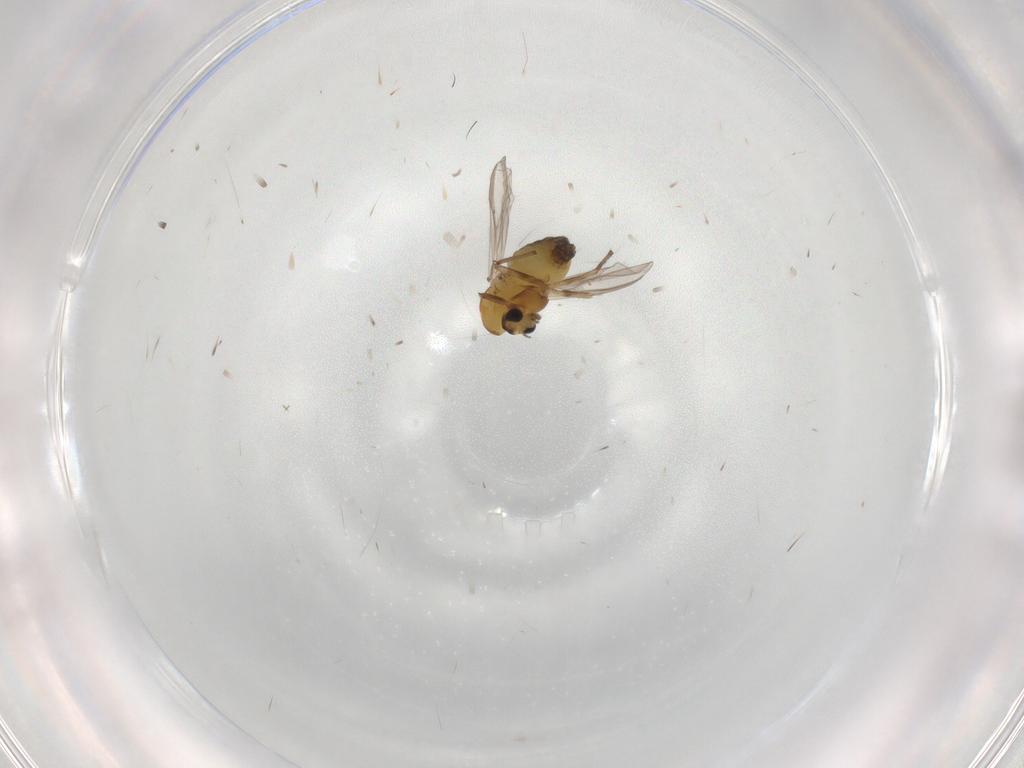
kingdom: Animalia
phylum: Arthropoda
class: Insecta
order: Diptera
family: Chironomidae
